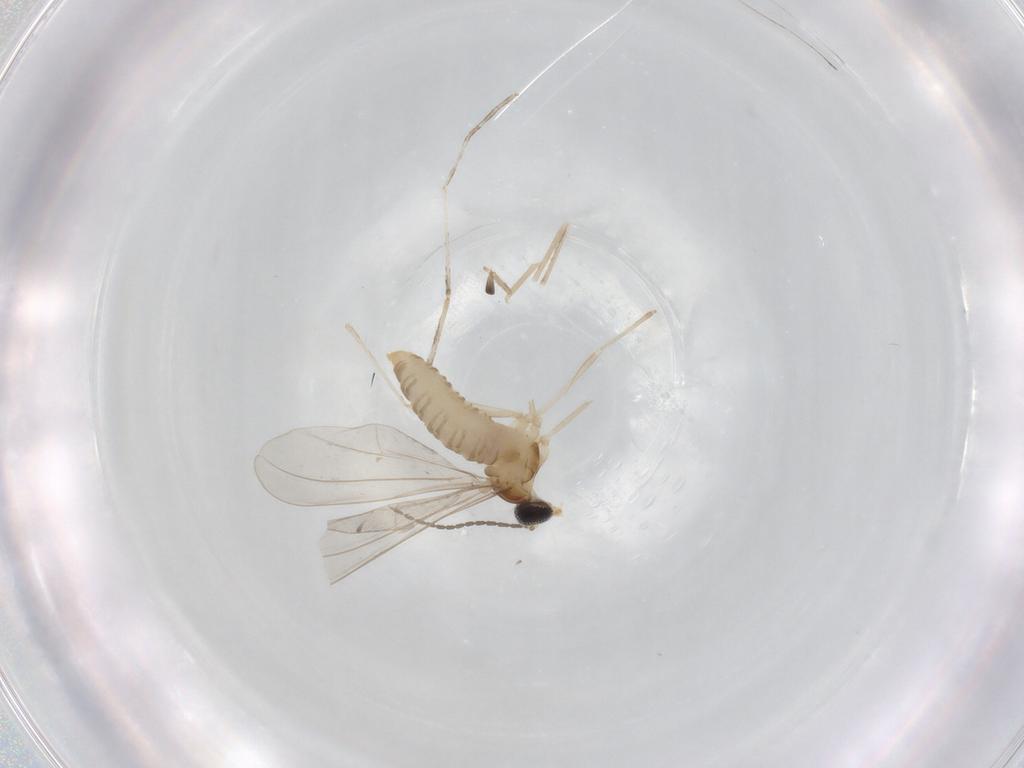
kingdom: Animalia
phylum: Arthropoda
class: Insecta
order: Diptera
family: Cecidomyiidae
